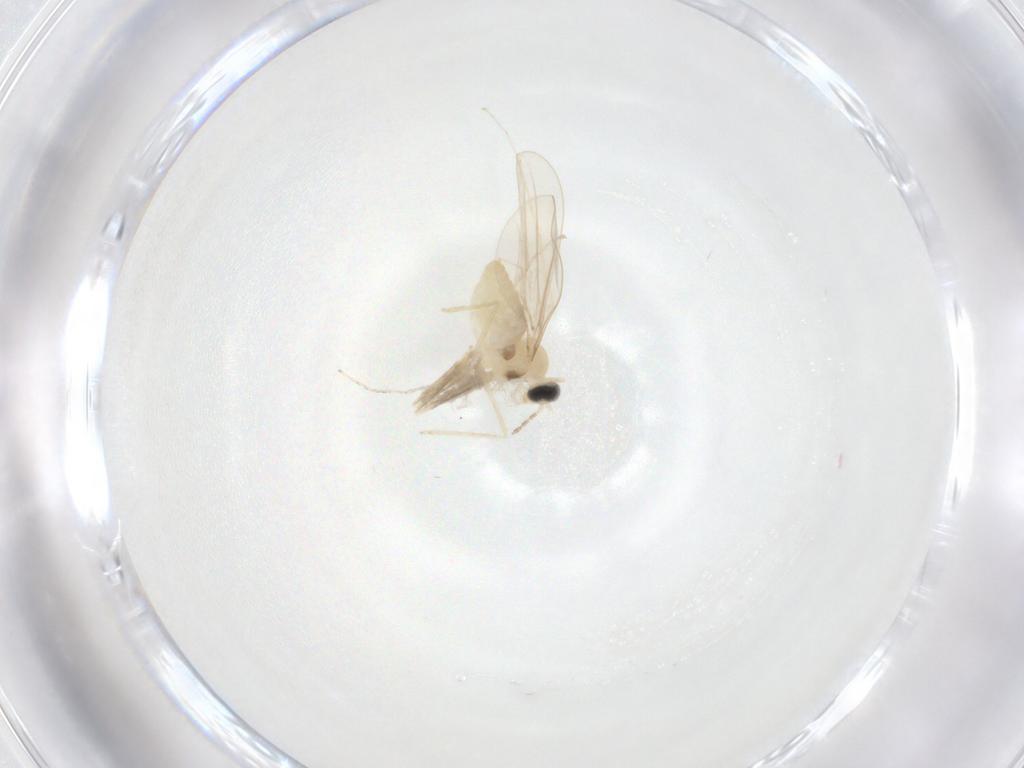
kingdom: Animalia
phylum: Arthropoda
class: Insecta
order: Diptera
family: Cecidomyiidae
